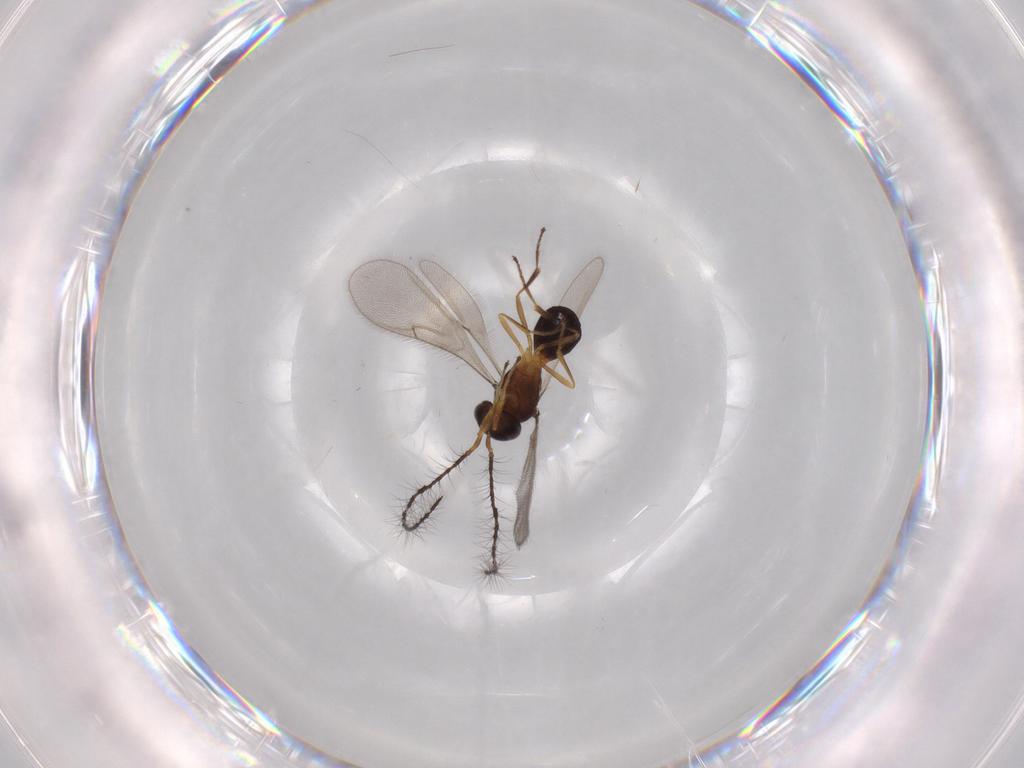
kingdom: Animalia
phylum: Arthropoda
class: Insecta
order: Hymenoptera
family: Scelionidae
